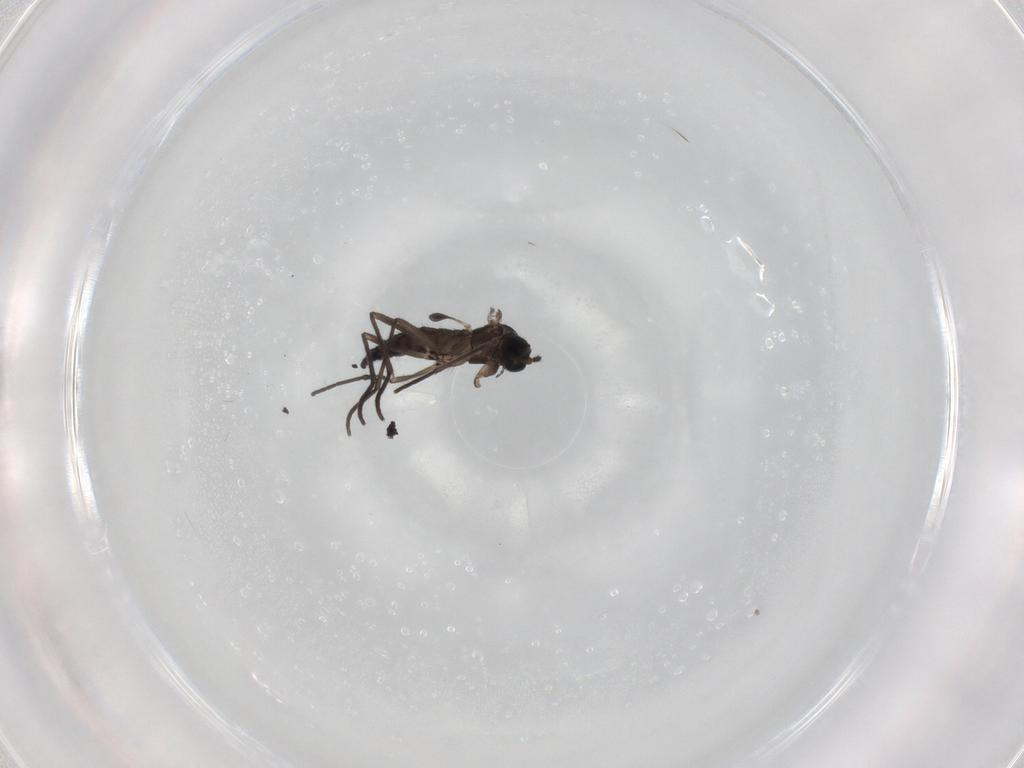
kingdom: Animalia
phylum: Arthropoda
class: Insecta
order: Diptera
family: Sciaridae
